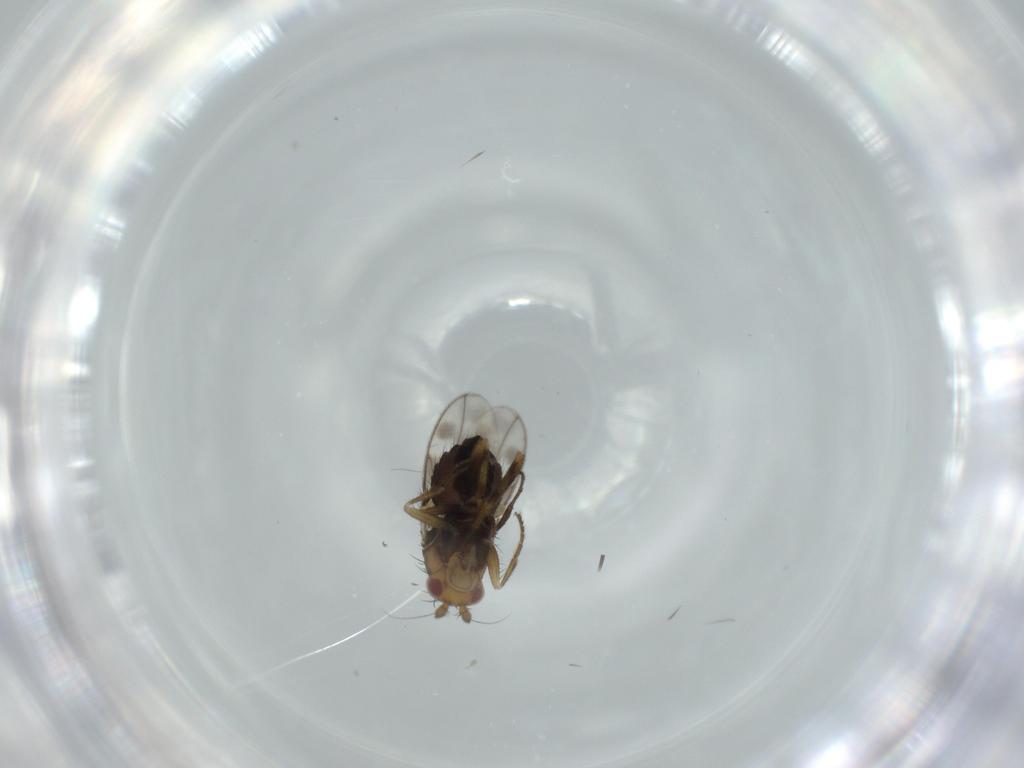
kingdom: Animalia
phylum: Arthropoda
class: Insecta
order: Diptera
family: Sphaeroceridae
